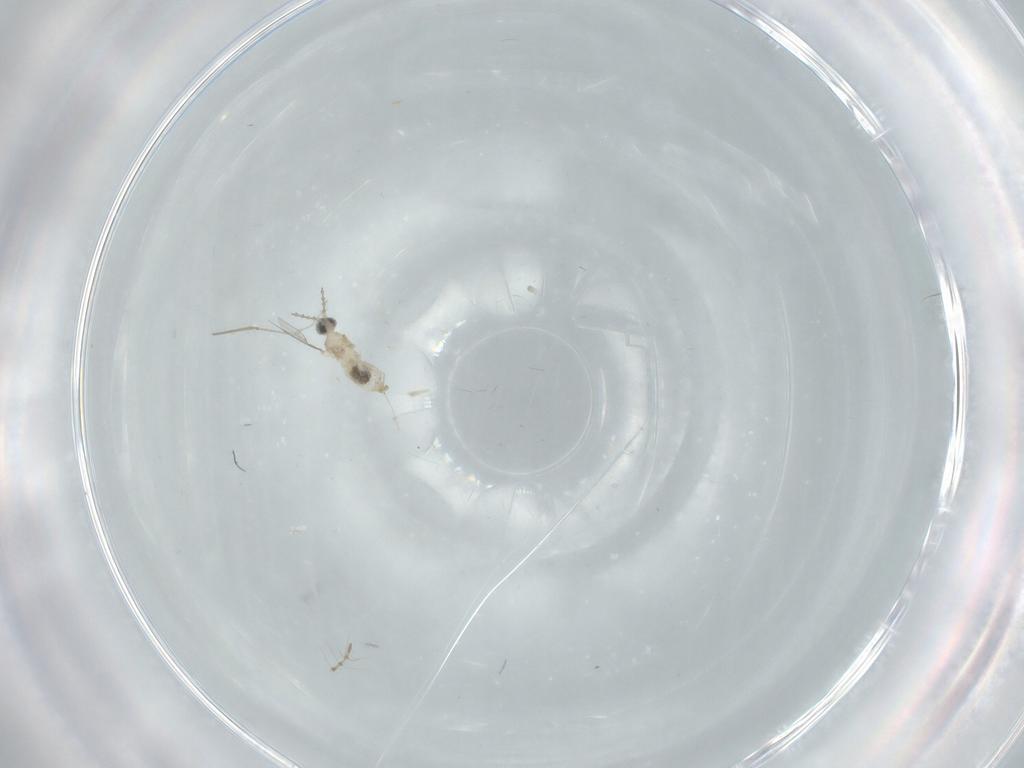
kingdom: Animalia
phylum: Arthropoda
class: Insecta
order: Diptera
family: Chironomidae
